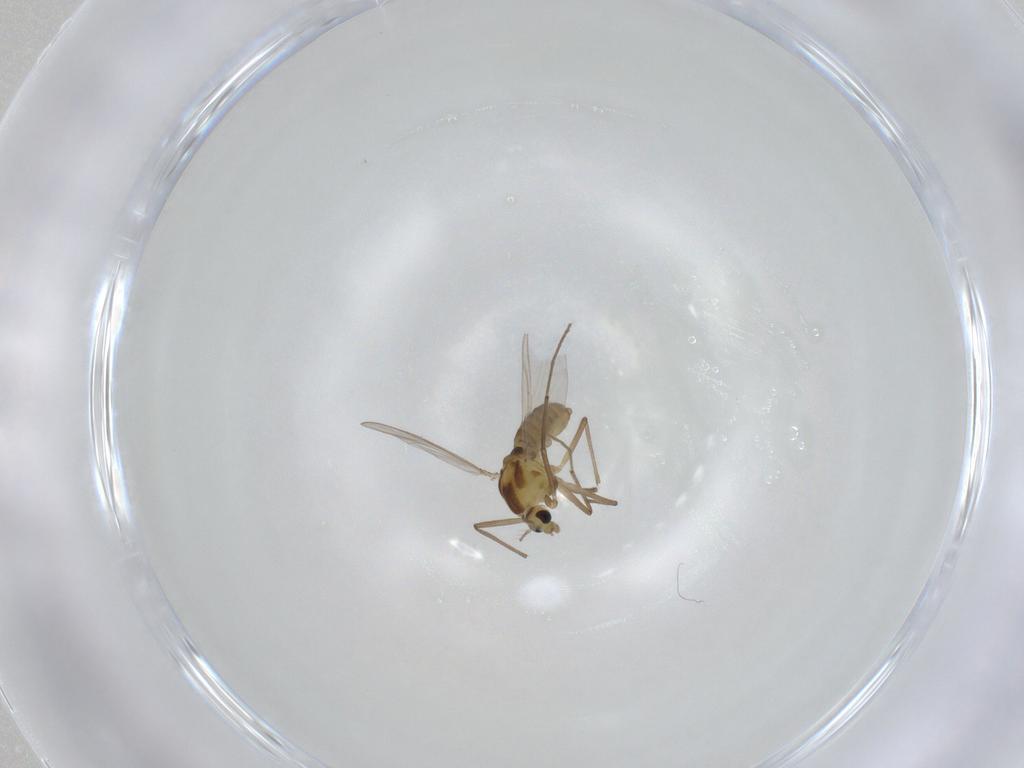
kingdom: Animalia
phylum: Arthropoda
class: Insecta
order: Diptera
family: Chironomidae
